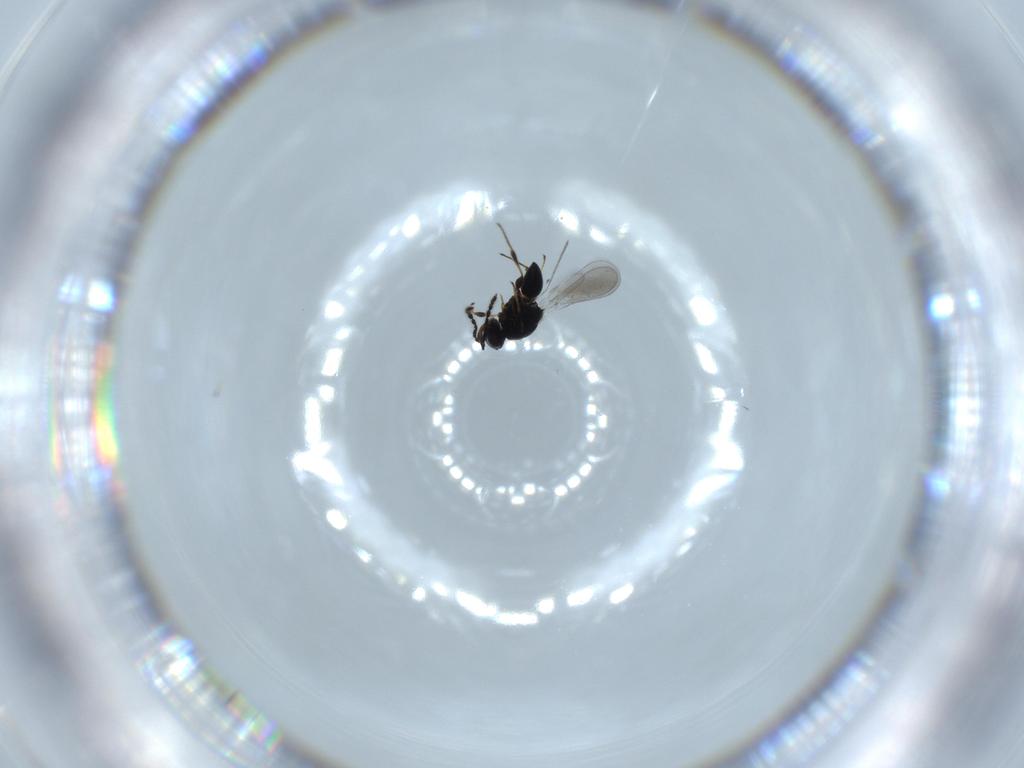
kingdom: Animalia
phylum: Arthropoda
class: Insecta
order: Hymenoptera
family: Platygastridae
